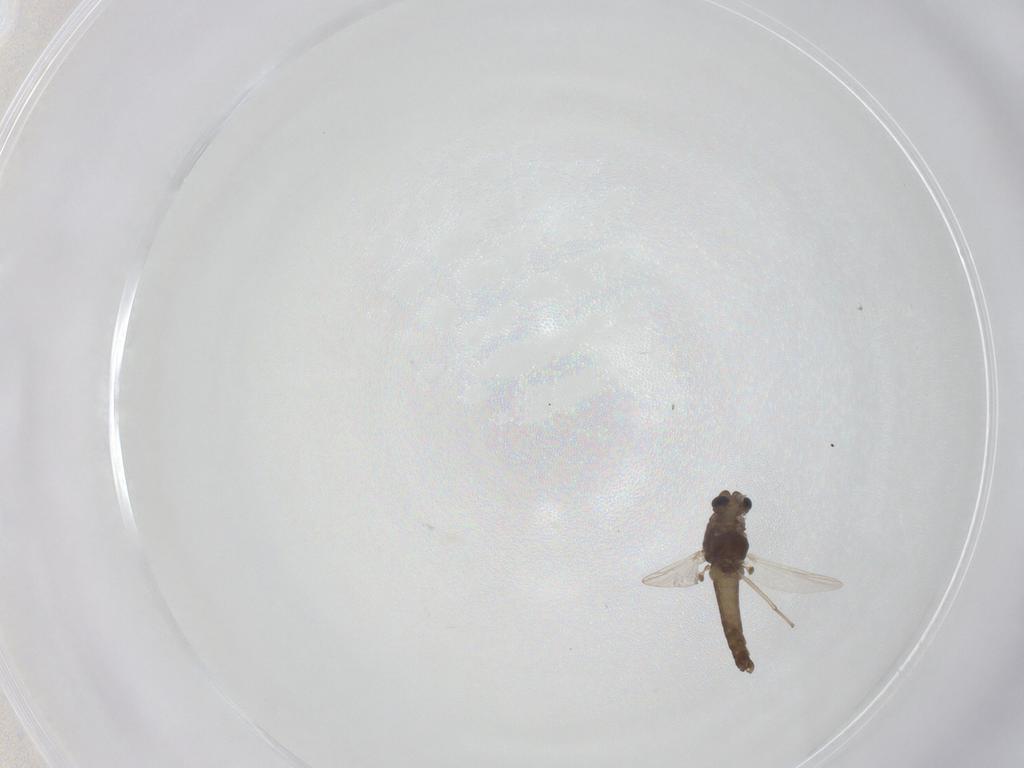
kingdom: Animalia
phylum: Arthropoda
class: Insecta
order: Diptera
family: Chironomidae
